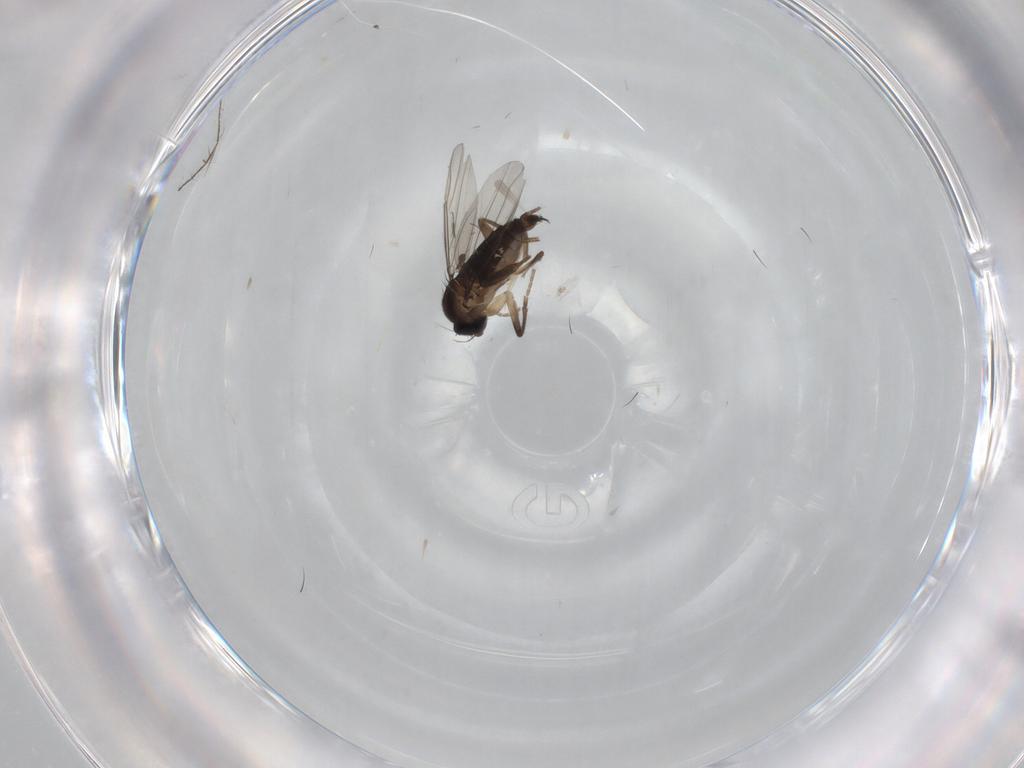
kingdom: Animalia
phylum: Arthropoda
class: Insecta
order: Diptera
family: Phoridae
